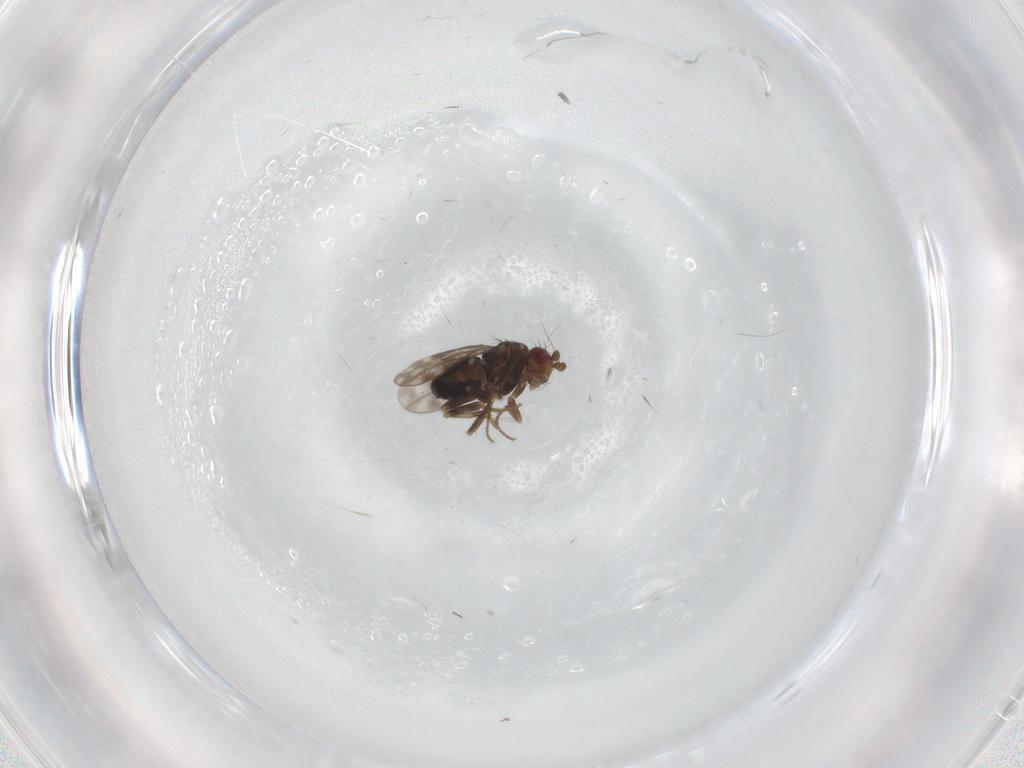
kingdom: Animalia
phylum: Arthropoda
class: Insecta
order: Diptera
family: Sphaeroceridae
